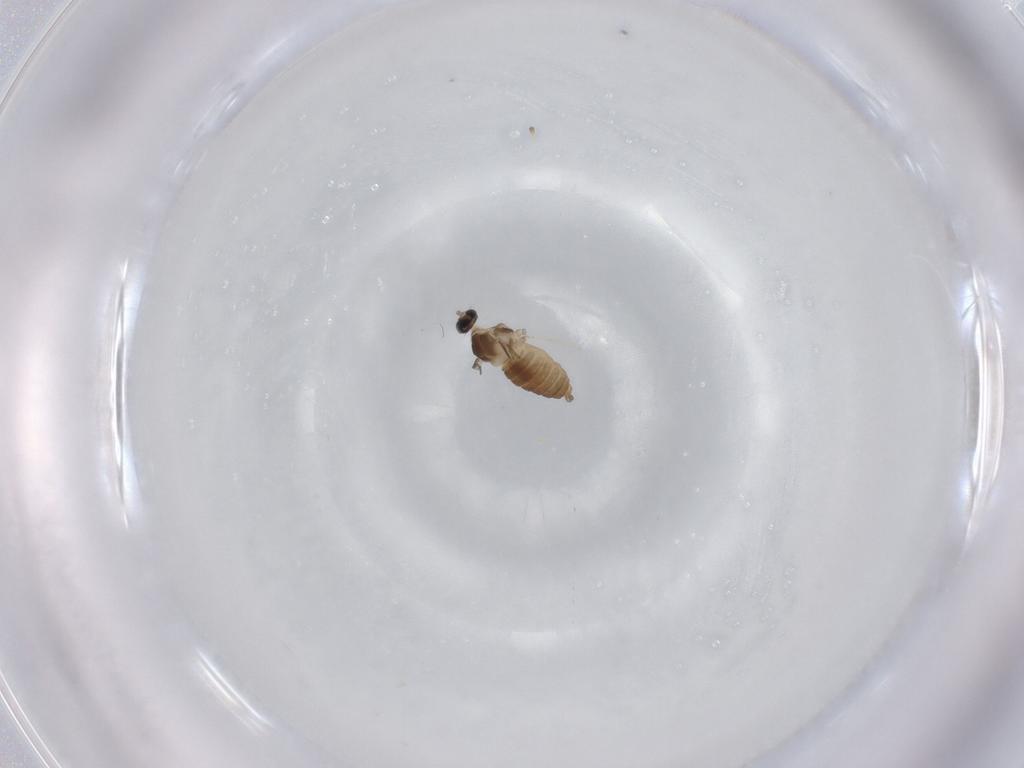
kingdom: Animalia
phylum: Arthropoda
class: Insecta
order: Diptera
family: Cecidomyiidae
